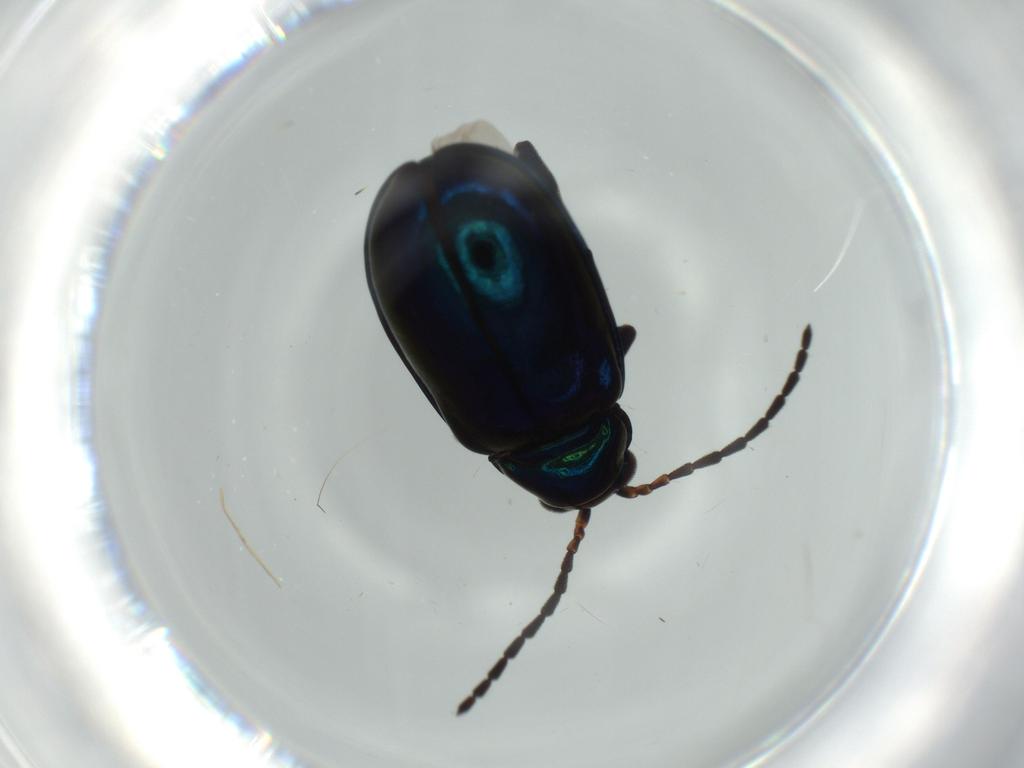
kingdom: Animalia
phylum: Arthropoda
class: Insecta
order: Coleoptera
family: Chrysomelidae
